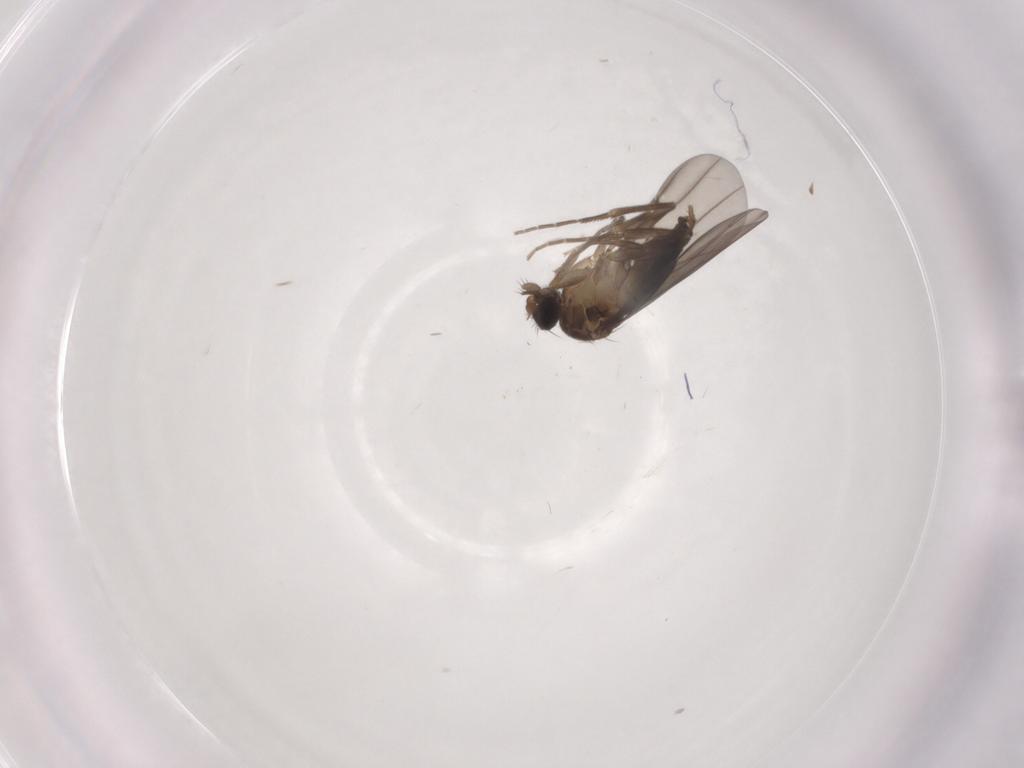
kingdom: Animalia
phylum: Arthropoda
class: Insecta
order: Diptera
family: Phoridae
